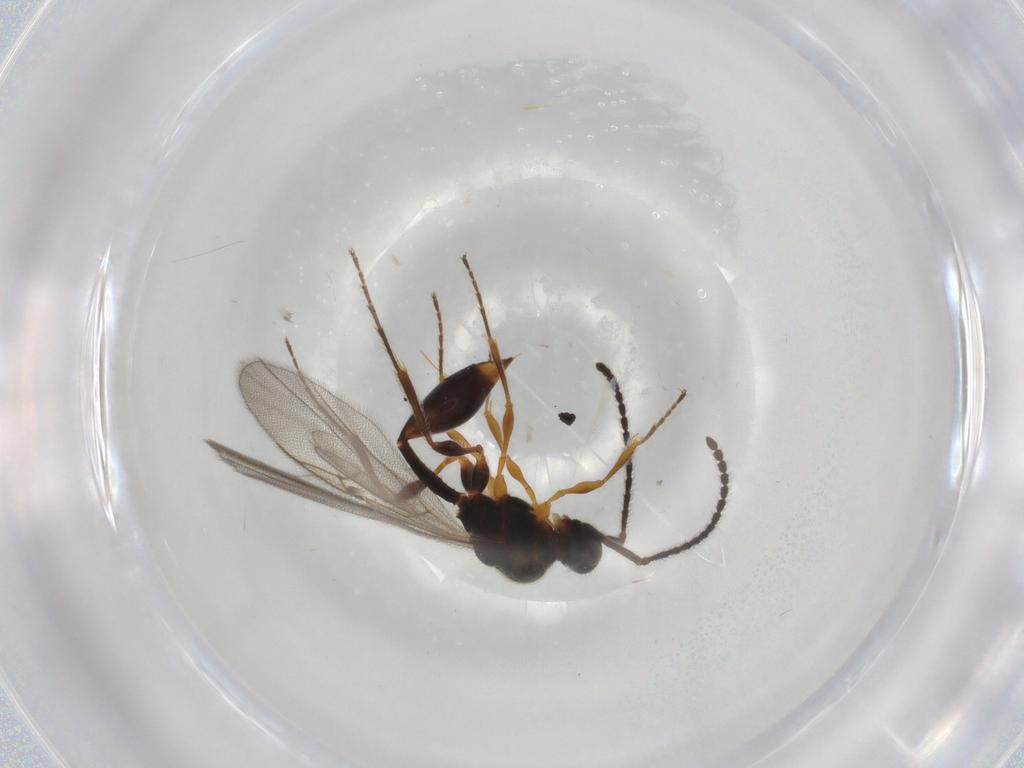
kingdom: Animalia
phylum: Arthropoda
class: Insecta
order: Hymenoptera
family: Diapriidae
